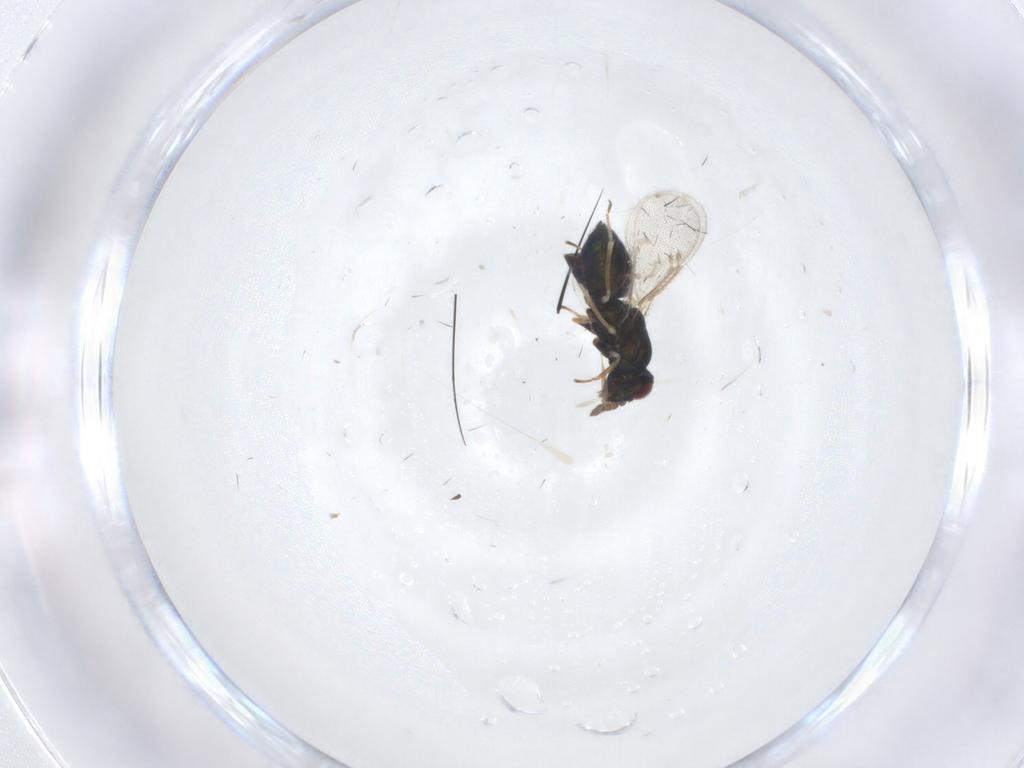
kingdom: Animalia
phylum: Arthropoda
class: Insecta
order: Hymenoptera
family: Eulophidae
